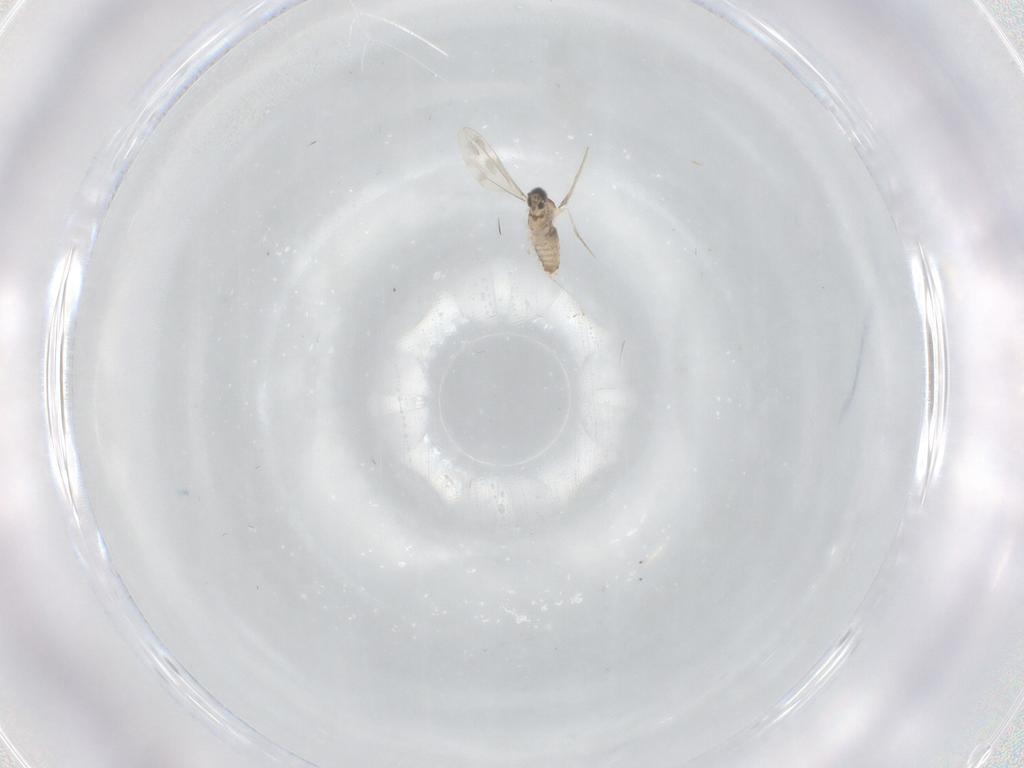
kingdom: Animalia
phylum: Arthropoda
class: Insecta
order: Diptera
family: Cecidomyiidae
